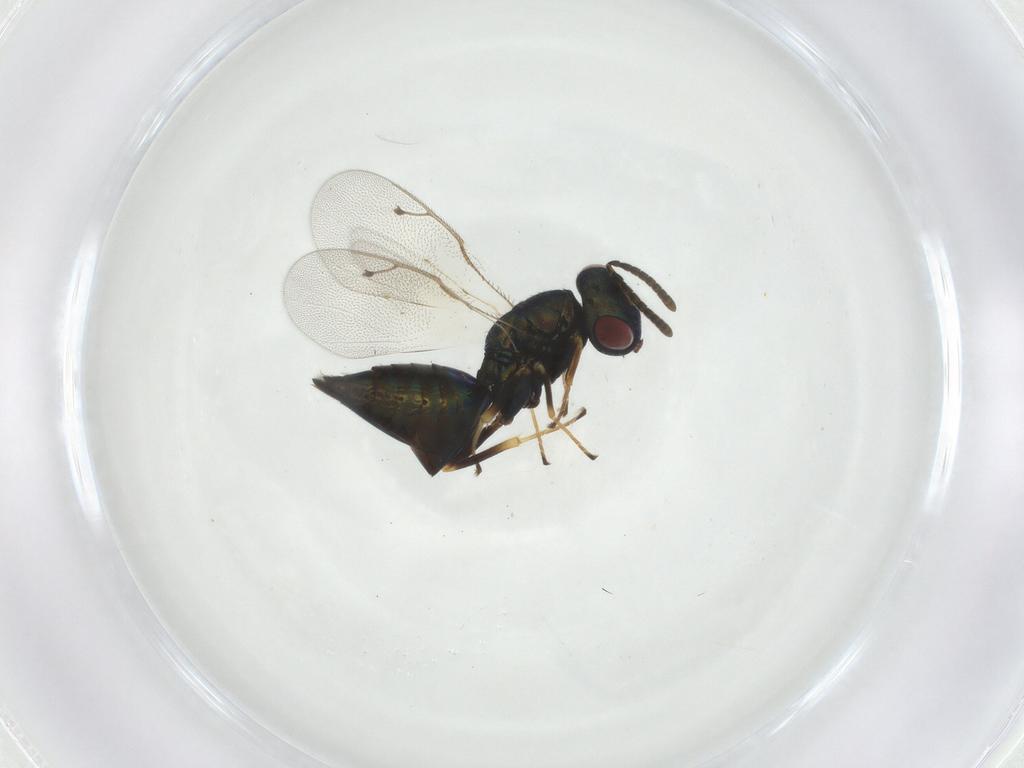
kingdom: Animalia
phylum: Arthropoda
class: Insecta
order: Hymenoptera
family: Pteromalidae
